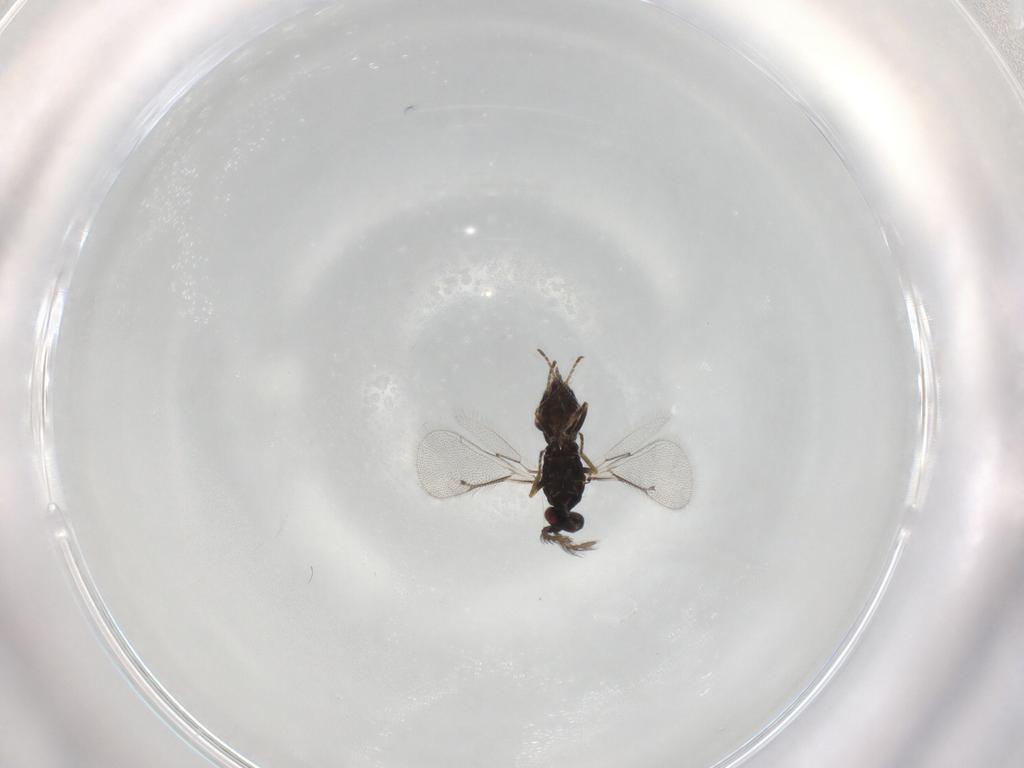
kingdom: Animalia
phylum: Arthropoda
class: Insecta
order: Hymenoptera
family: Eulophidae
